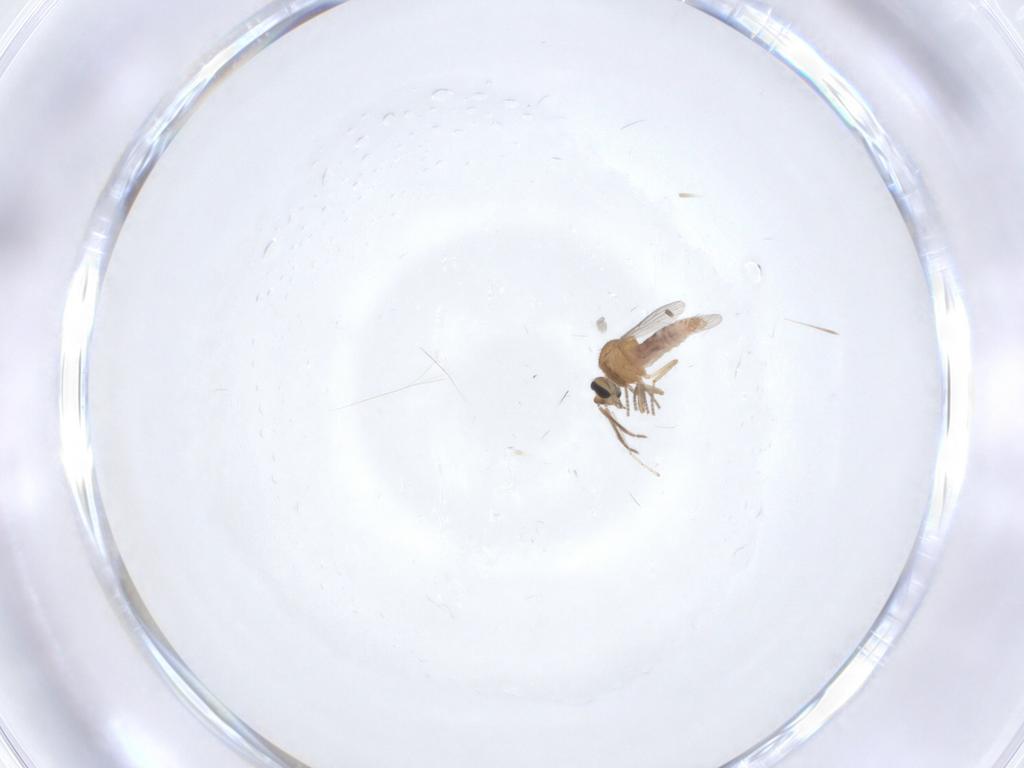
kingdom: Animalia
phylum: Arthropoda
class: Insecta
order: Diptera
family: Ceratopogonidae
